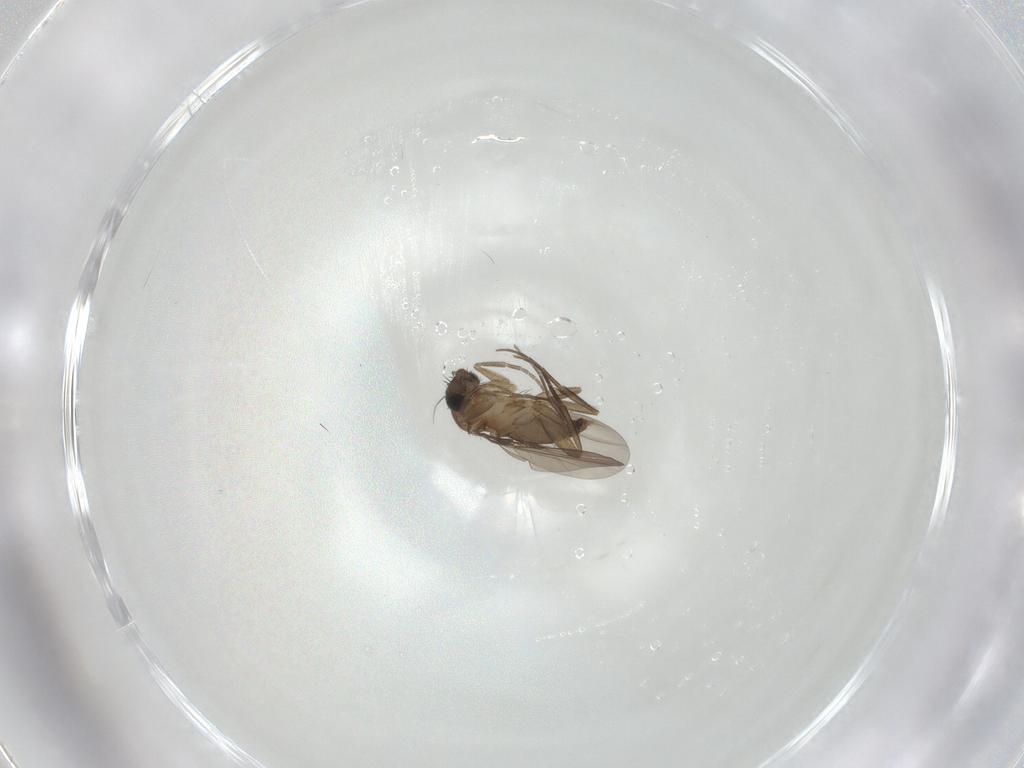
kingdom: Animalia
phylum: Arthropoda
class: Insecta
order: Diptera
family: Phoridae
